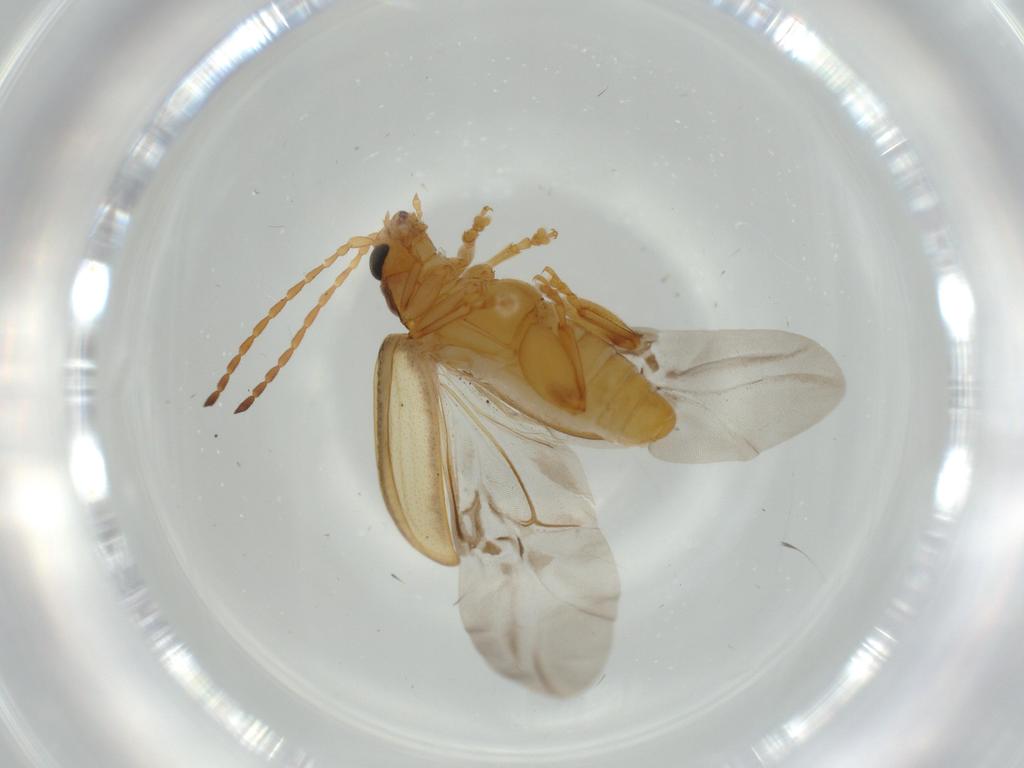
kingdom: Animalia
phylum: Arthropoda
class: Insecta
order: Coleoptera
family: Chrysomelidae
